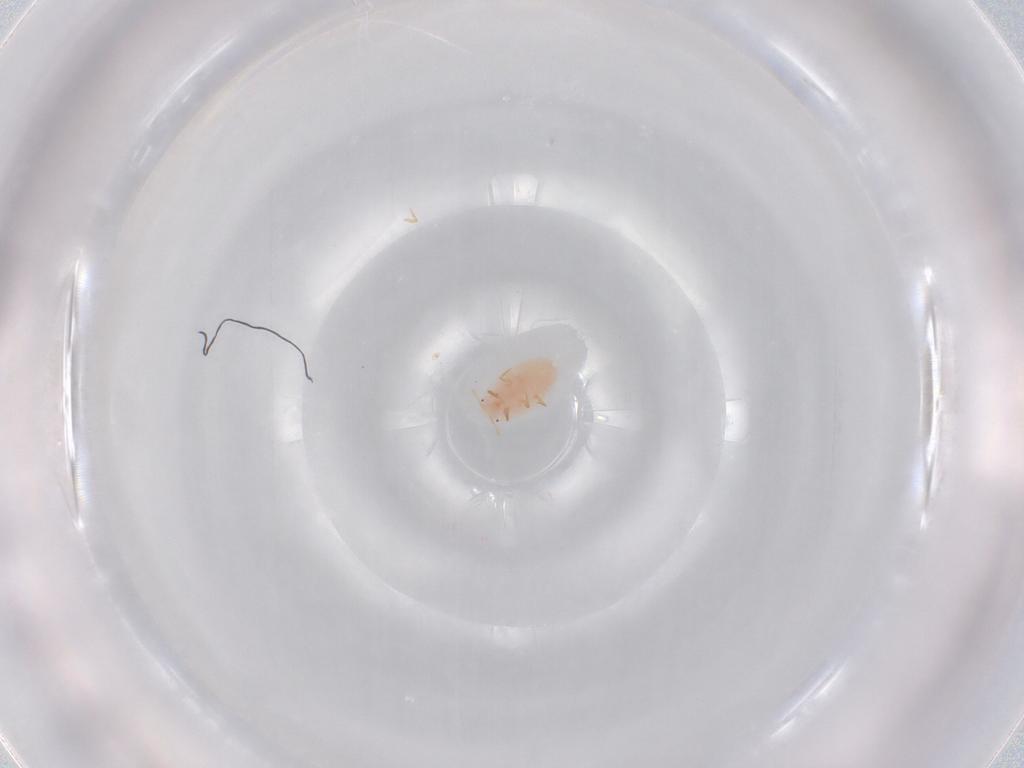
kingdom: Animalia
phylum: Arthropoda
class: Insecta
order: Hemiptera
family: Pseudococcidae
